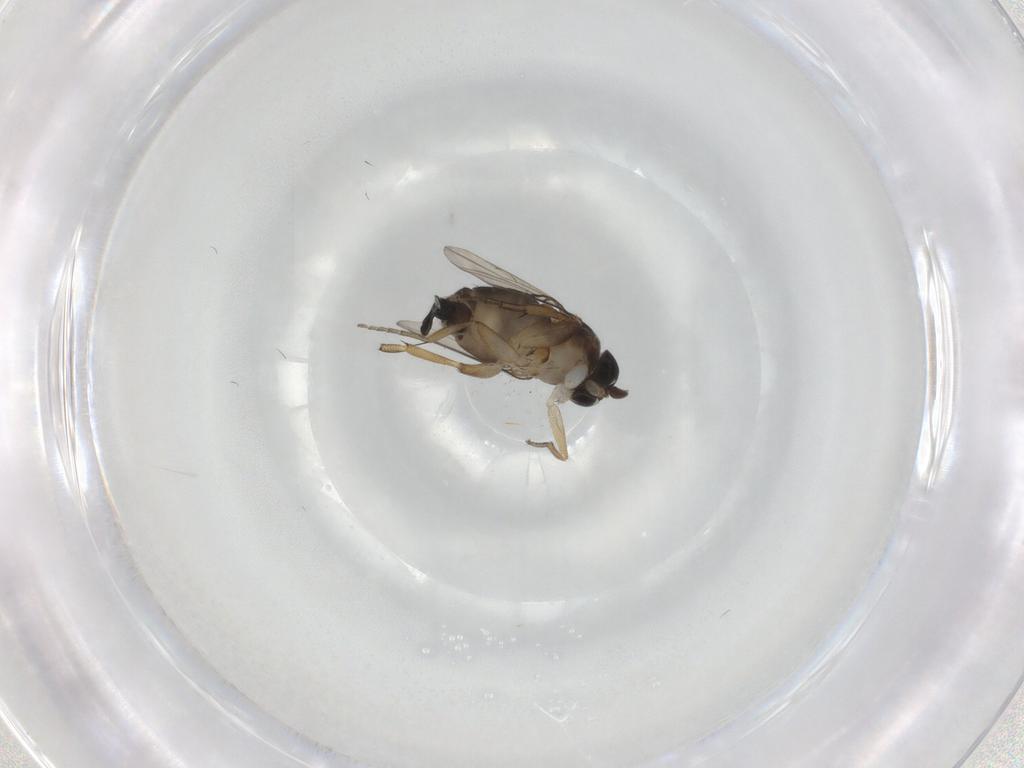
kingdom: Animalia
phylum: Arthropoda
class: Insecta
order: Diptera
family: Phoridae
